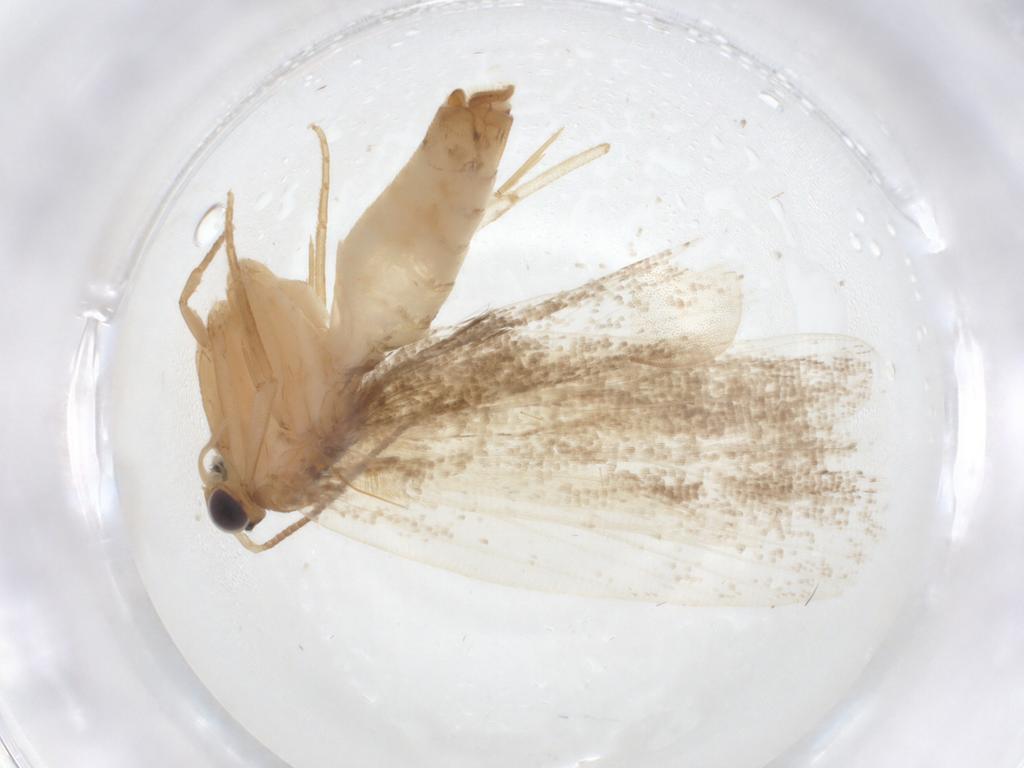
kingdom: Animalia
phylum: Arthropoda
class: Insecta
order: Lepidoptera
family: Tortricidae
